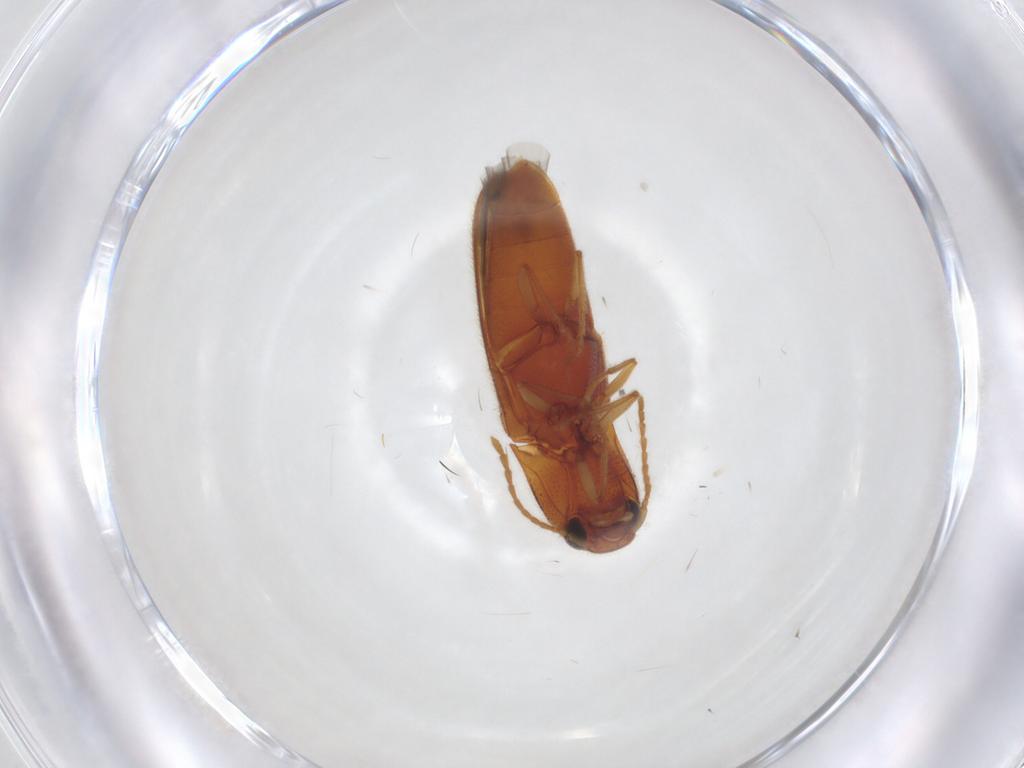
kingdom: Animalia
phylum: Arthropoda
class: Insecta
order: Coleoptera
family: Elateridae
